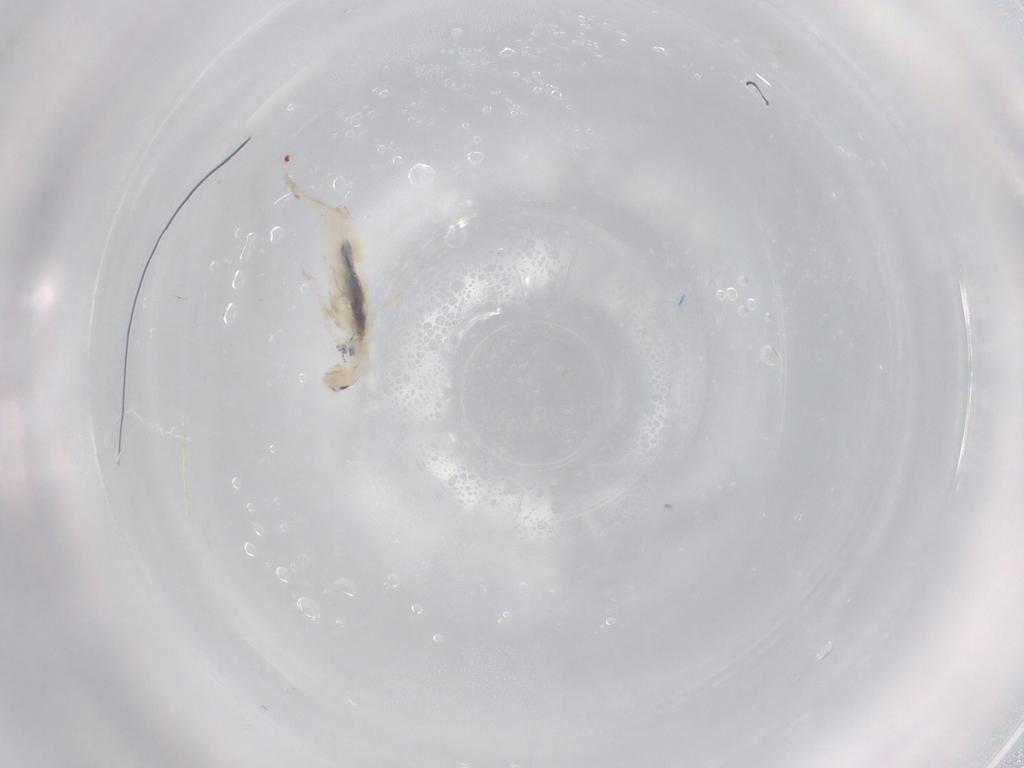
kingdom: Animalia
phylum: Arthropoda
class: Collembola
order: Entomobryomorpha
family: Entomobryidae
